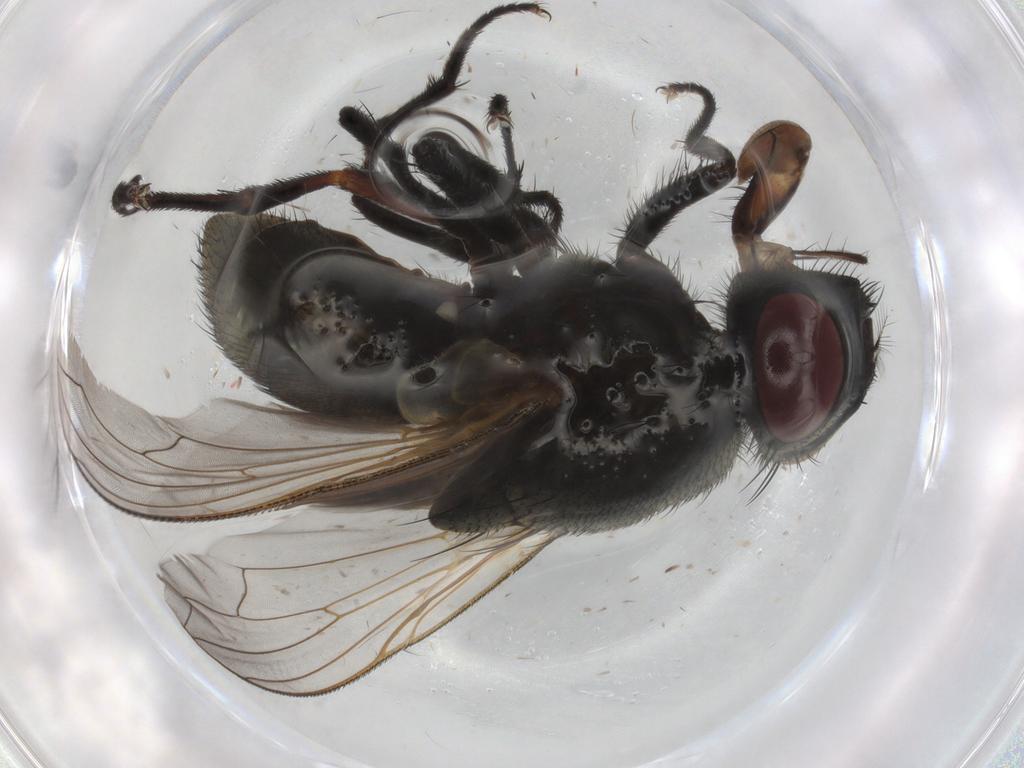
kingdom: Animalia
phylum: Arthropoda
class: Insecta
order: Diptera
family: Muscidae
